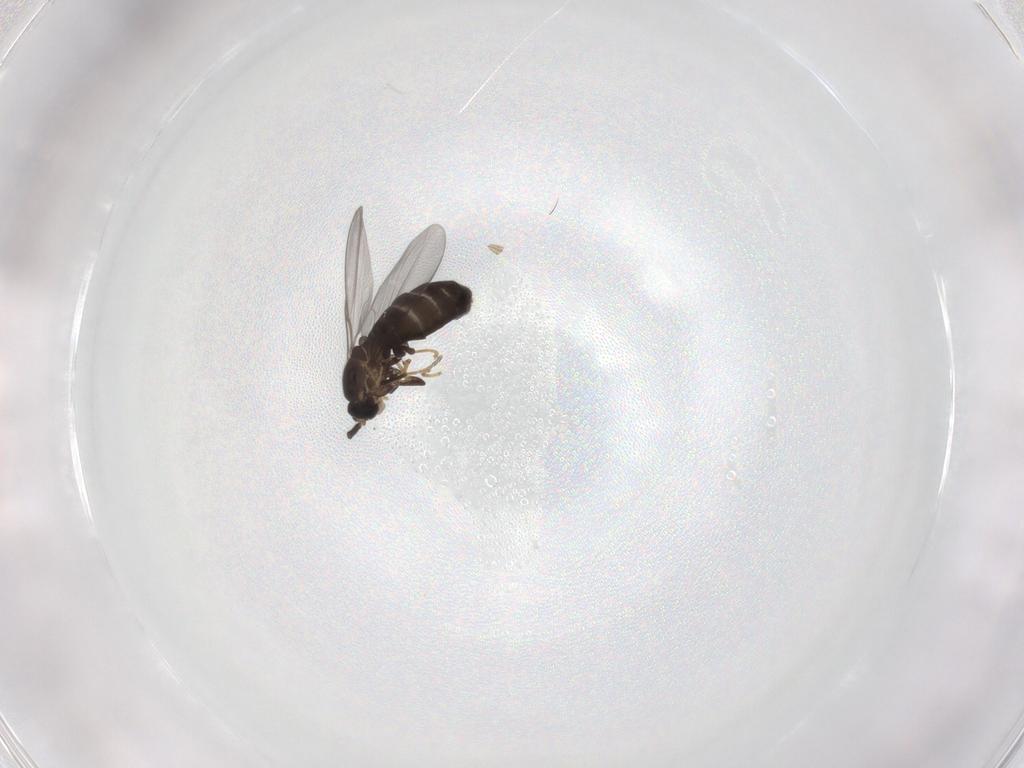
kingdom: Animalia
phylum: Arthropoda
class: Insecta
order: Diptera
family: Scatopsidae
